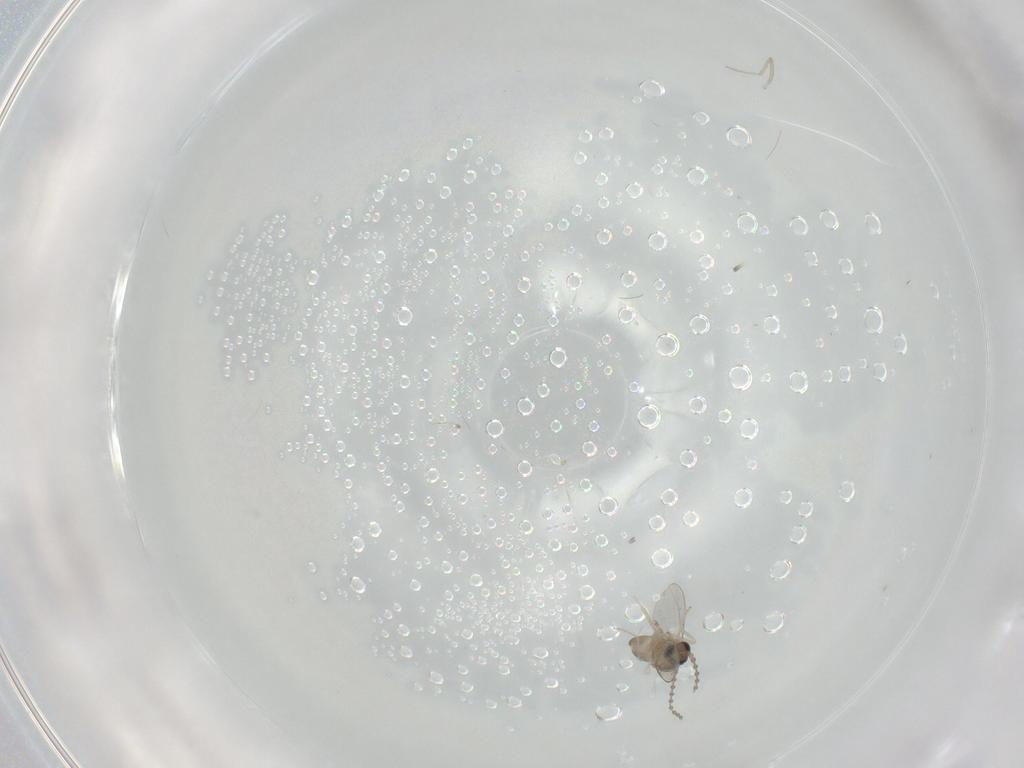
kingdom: Animalia
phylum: Arthropoda
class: Insecta
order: Diptera
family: Cecidomyiidae
